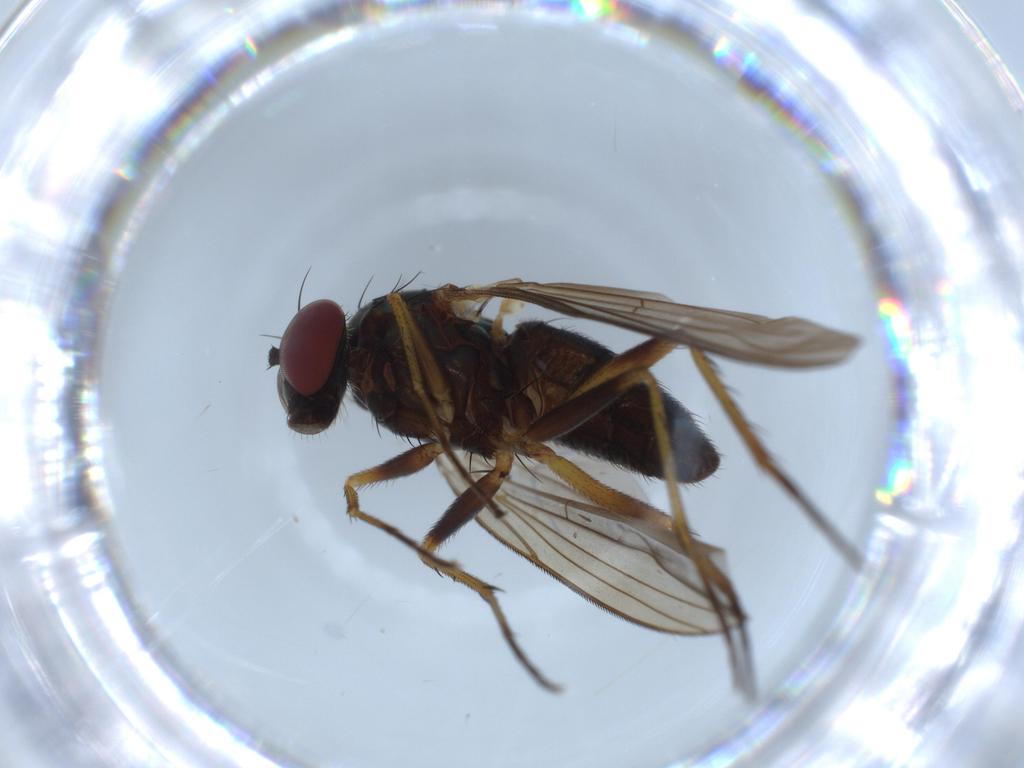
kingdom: Animalia
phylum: Arthropoda
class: Insecta
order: Diptera
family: Dolichopodidae
